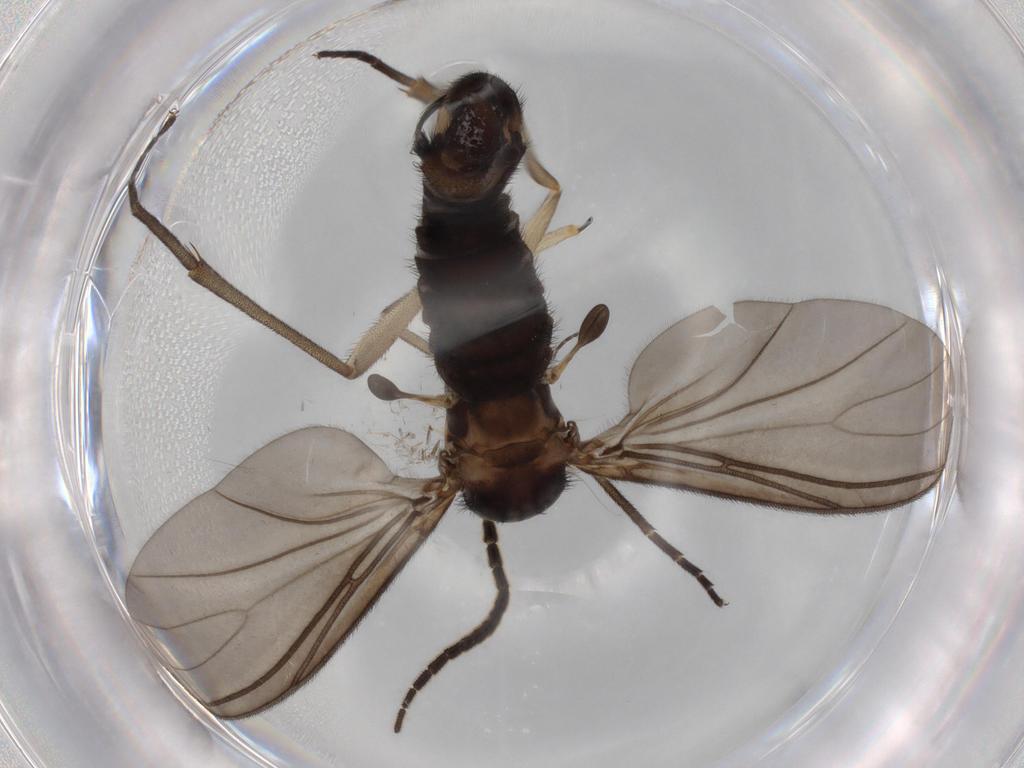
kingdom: Animalia
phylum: Arthropoda
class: Insecta
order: Diptera
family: Phoridae
